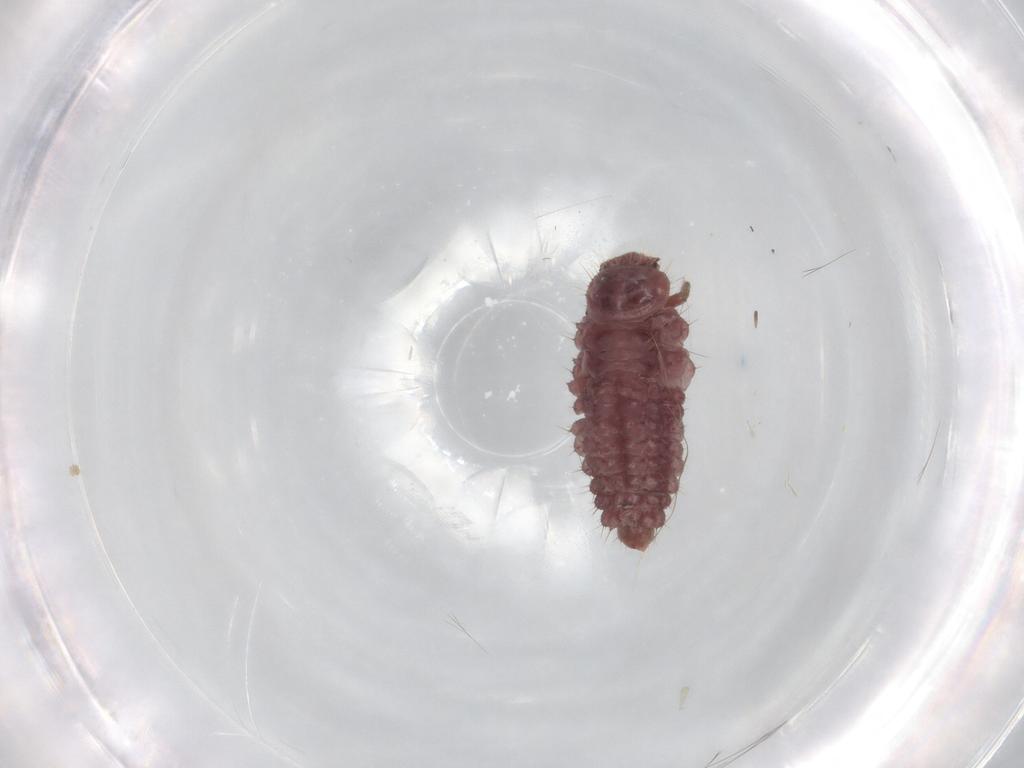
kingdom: Animalia
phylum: Arthropoda
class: Insecta
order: Coleoptera
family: Coccinellidae
